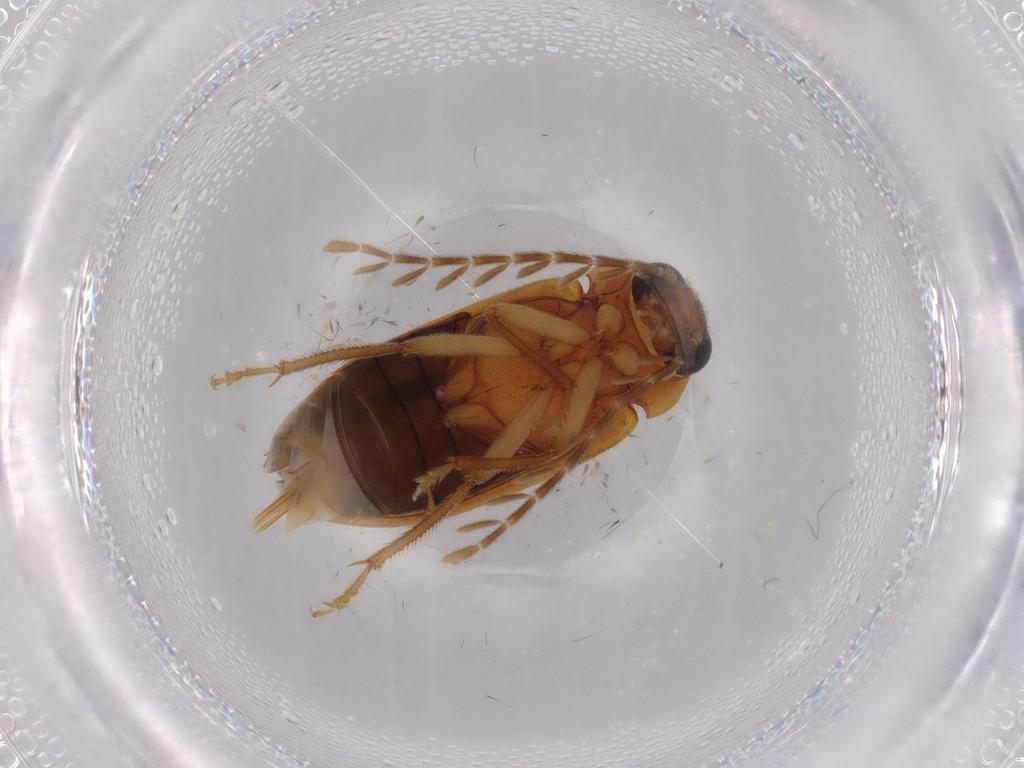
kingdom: Animalia
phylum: Arthropoda
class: Insecta
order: Coleoptera
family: Ptilodactylidae
